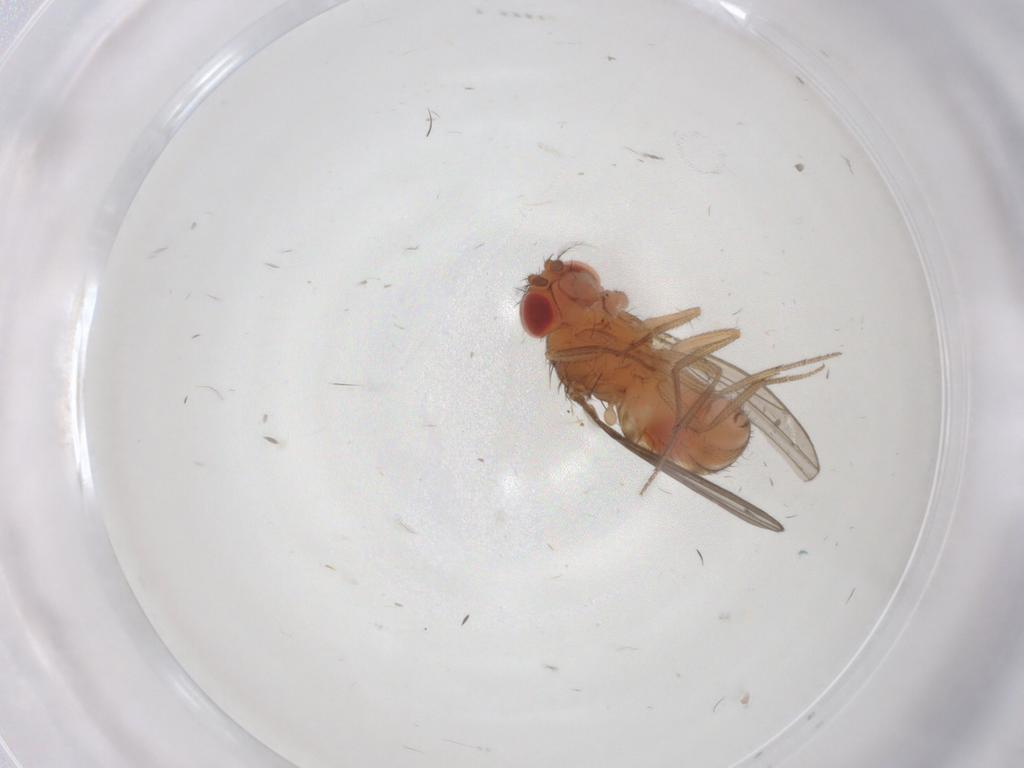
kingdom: Animalia
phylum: Arthropoda
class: Insecta
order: Diptera
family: Drosophilidae
